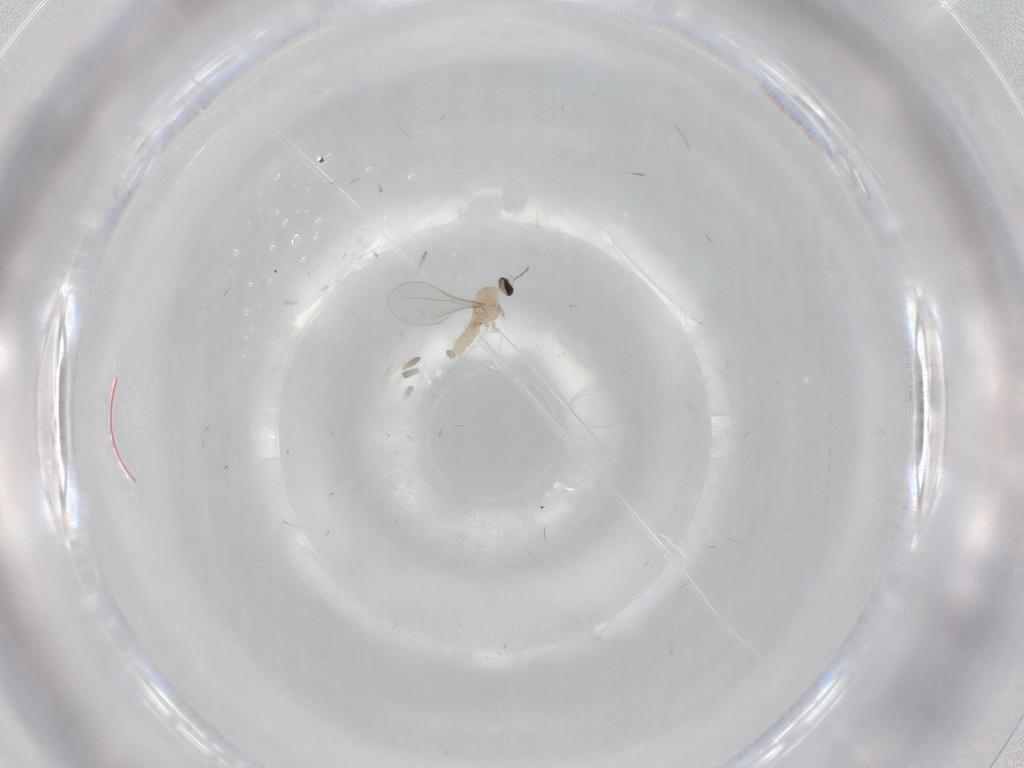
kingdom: Animalia
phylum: Arthropoda
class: Insecta
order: Diptera
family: Cecidomyiidae
